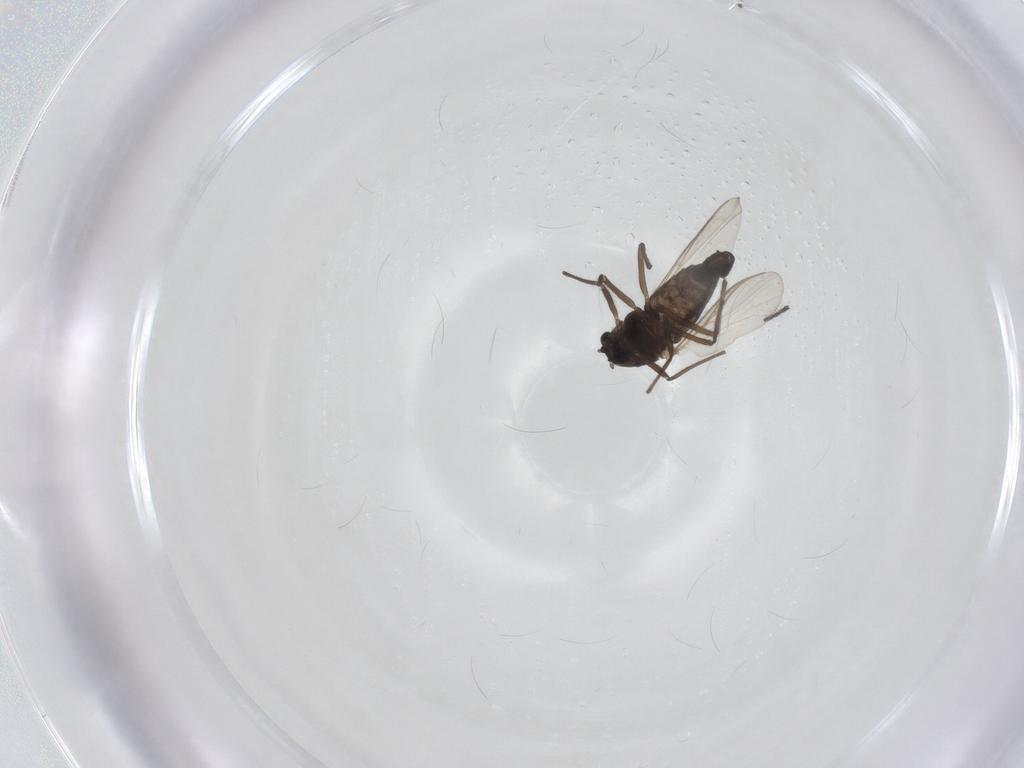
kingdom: Animalia
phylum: Arthropoda
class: Insecta
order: Diptera
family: Chironomidae
